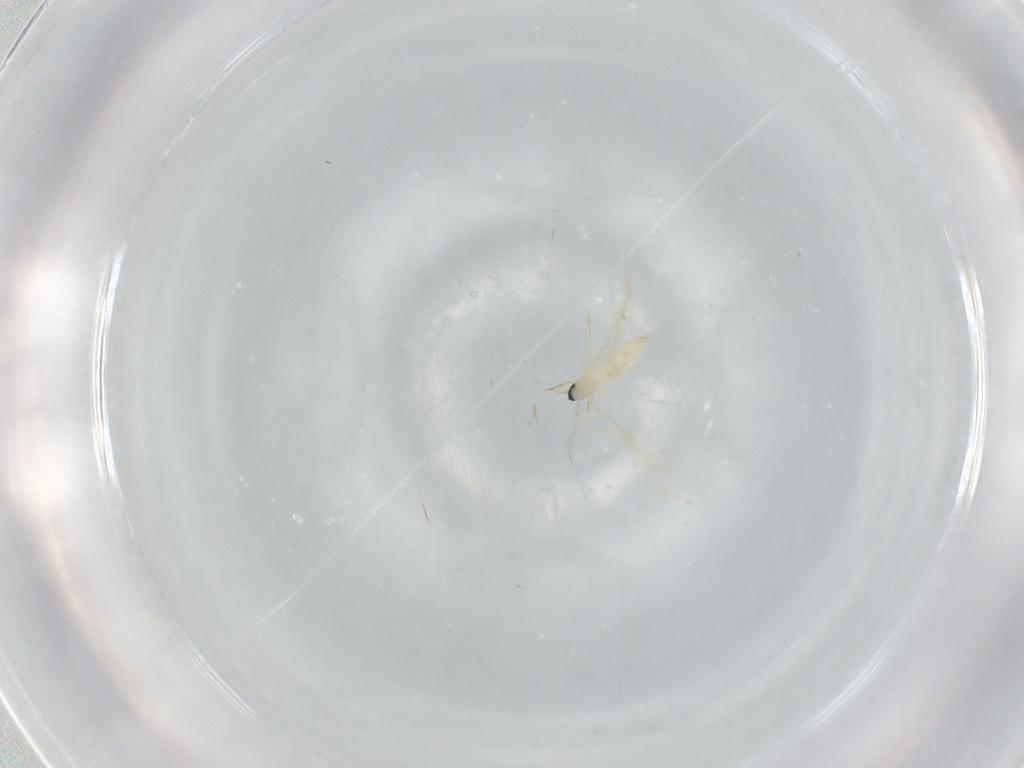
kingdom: Animalia
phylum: Arthropoda
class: Insecta
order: Diptera
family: Cecidomyiidae
